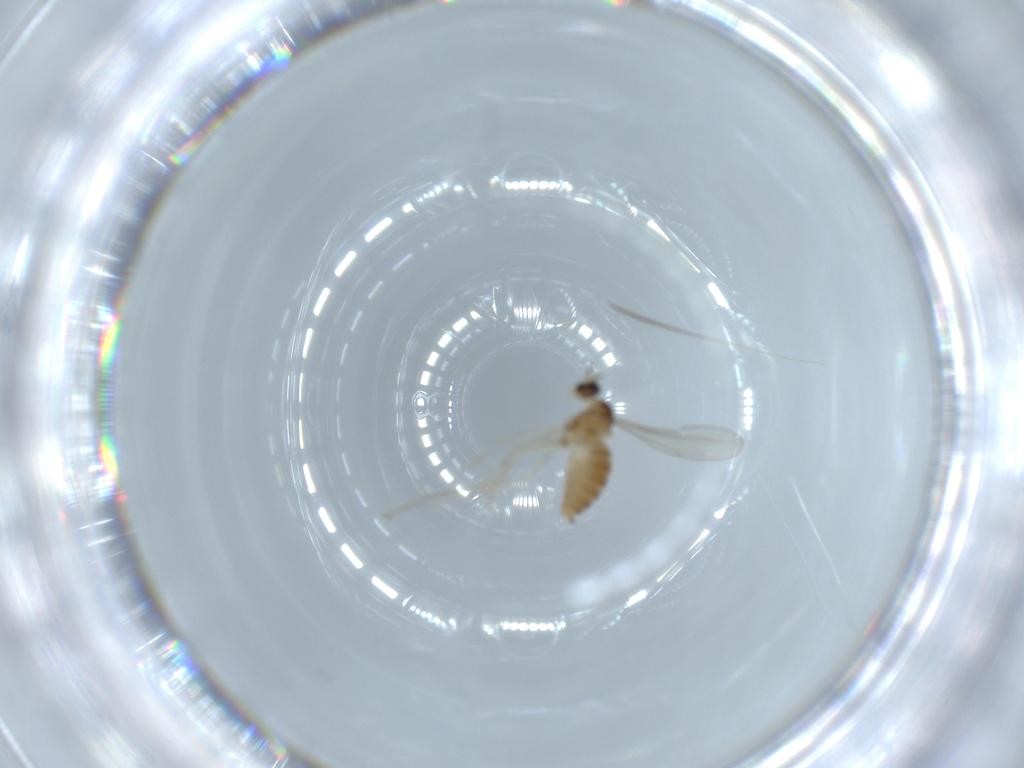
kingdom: Animalia
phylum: Arthropoda
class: Insecta
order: Diptera
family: Cecidomyiidae
